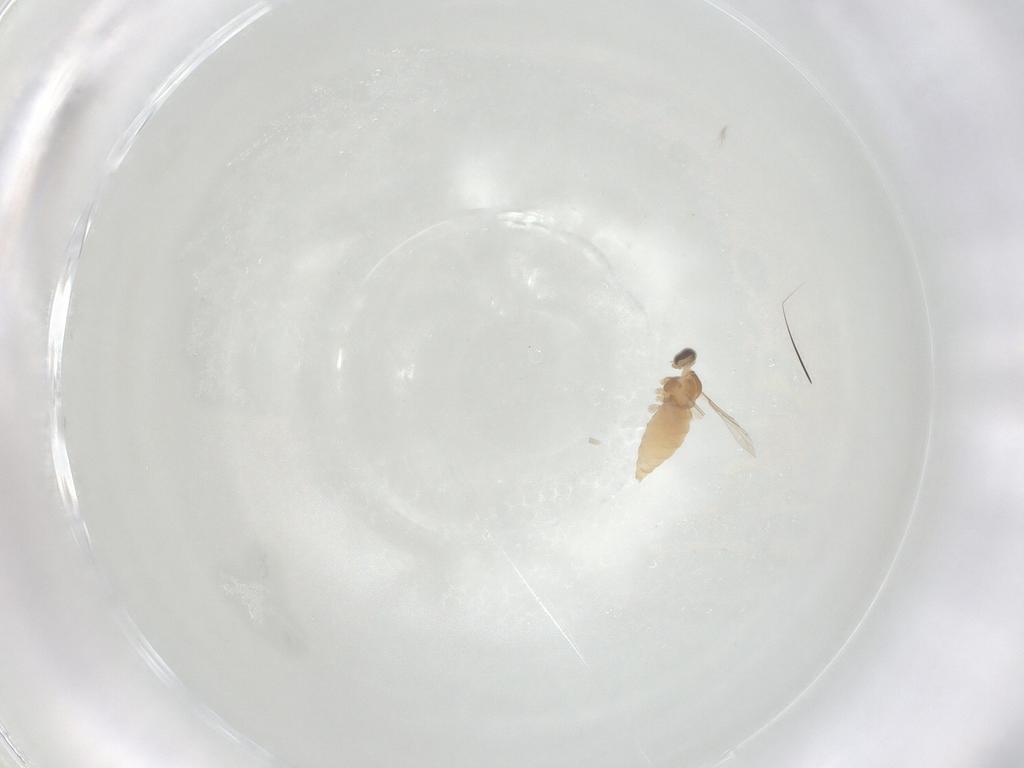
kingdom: Animalia
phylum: Arthropoda
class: Insecta
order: Diptera
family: Cecidomyiidae
